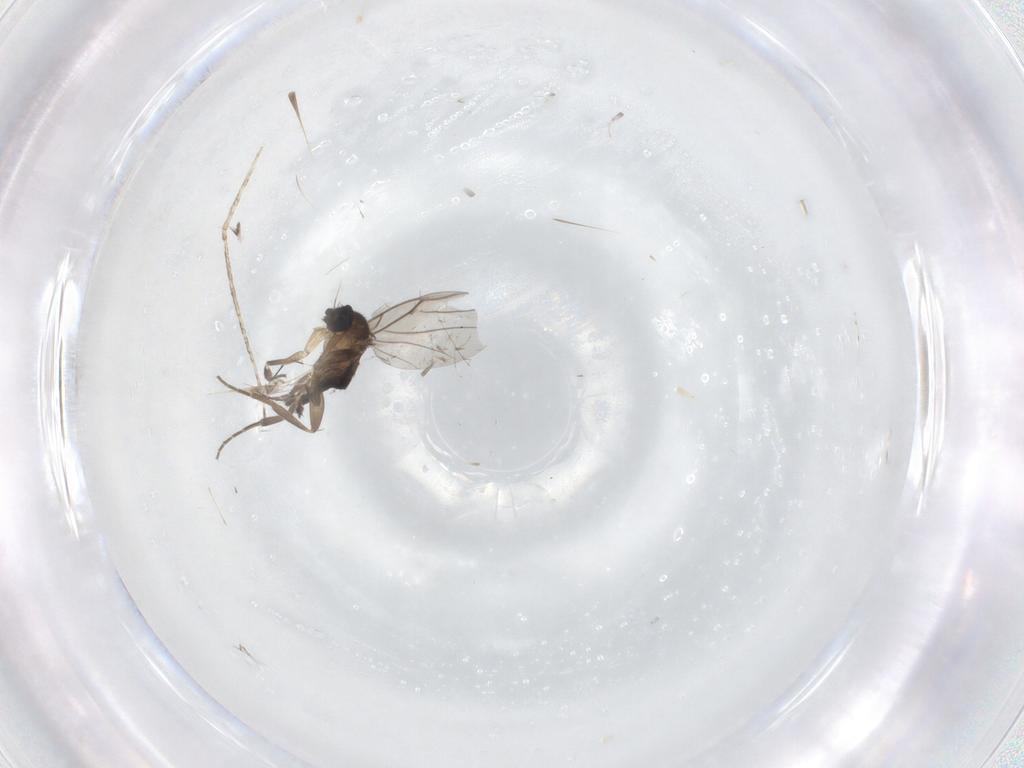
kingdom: Animalia
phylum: Arthropoda
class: Insecta
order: Diptera
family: Phoridae
